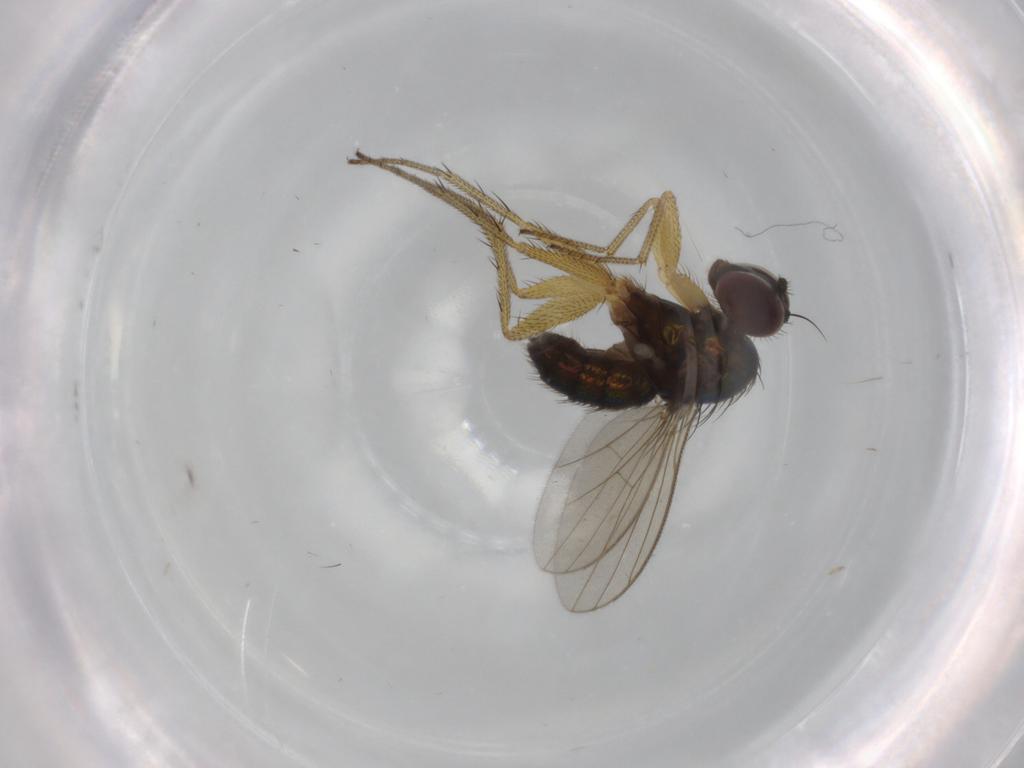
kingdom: Animalia
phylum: Arthropoda
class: Insecta
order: Diptera
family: Dolichopodidae
